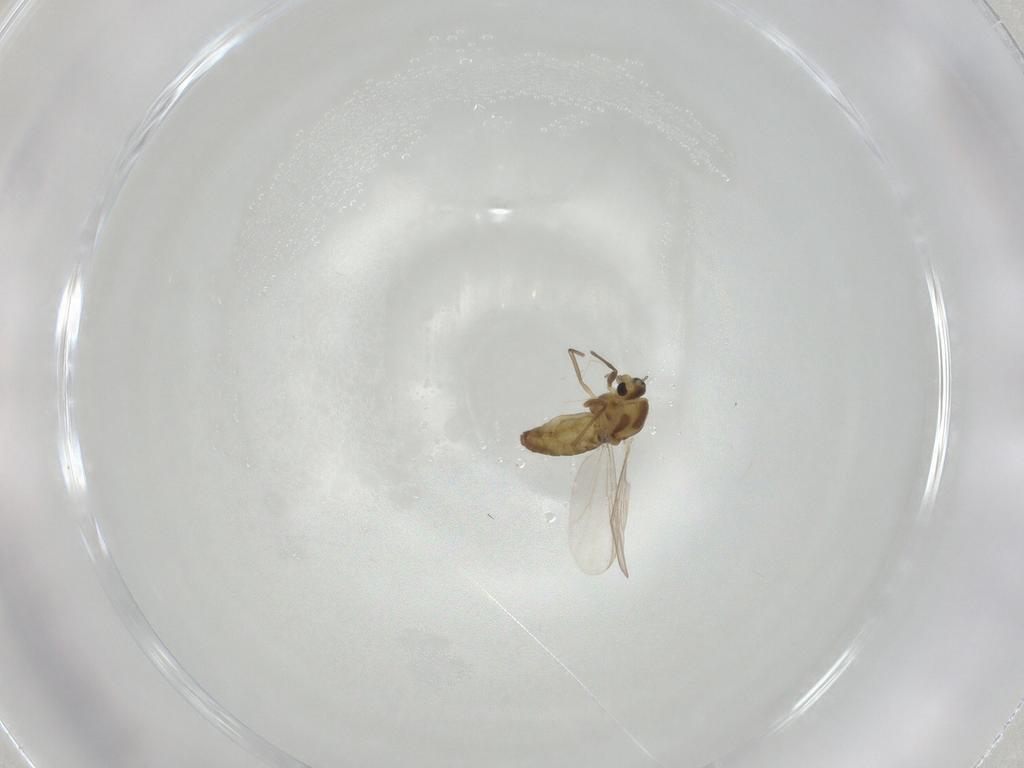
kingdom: Animalia
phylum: Arthropoda
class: Insecta
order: Diptera
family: Chironomidae
